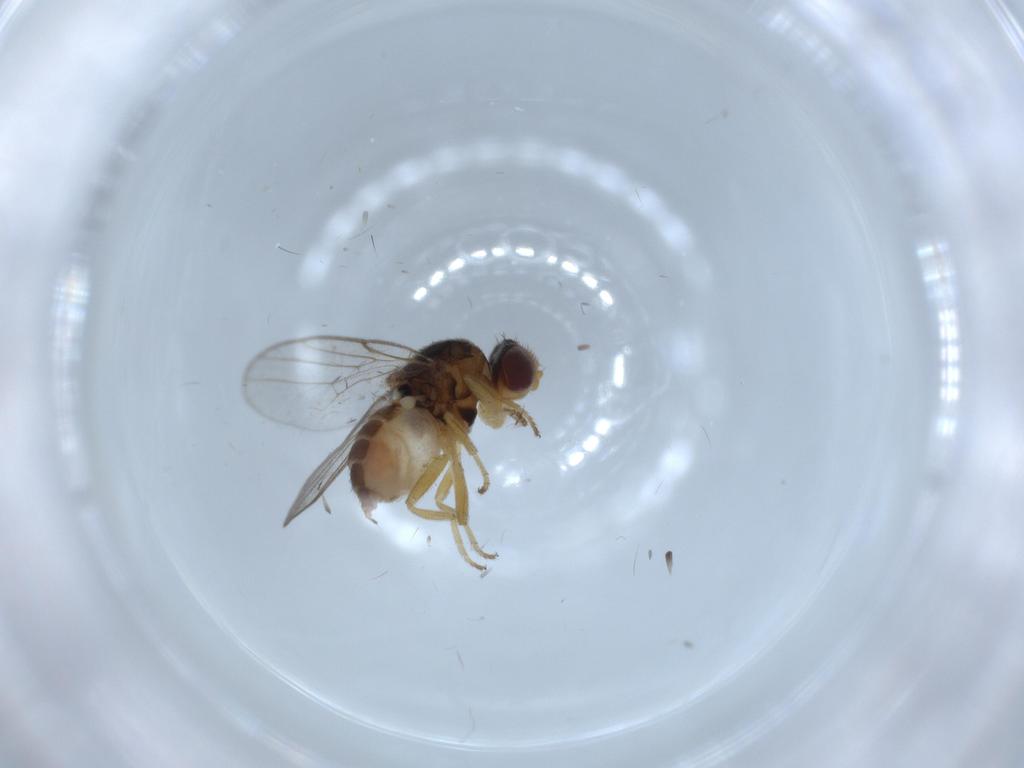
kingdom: Animalia
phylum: Arthropoda
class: Insecta
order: Diptera
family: Chloropidae
